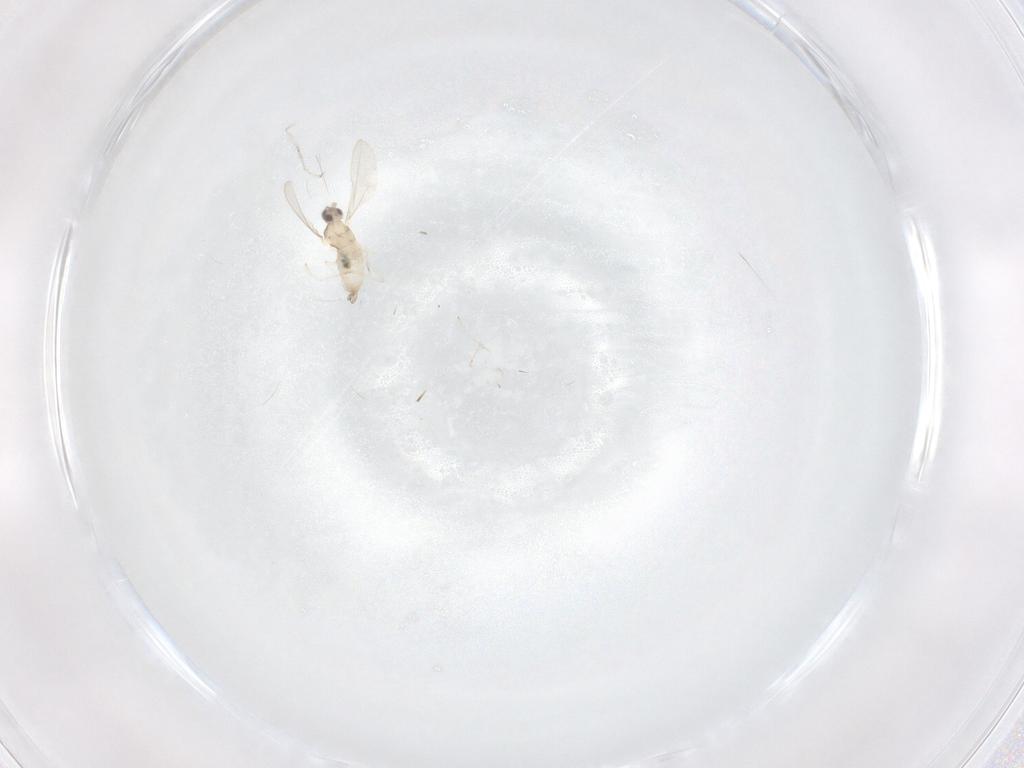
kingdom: Animalia
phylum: Arthropoda
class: Insecta
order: Diptera
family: Cecidomyiidae
